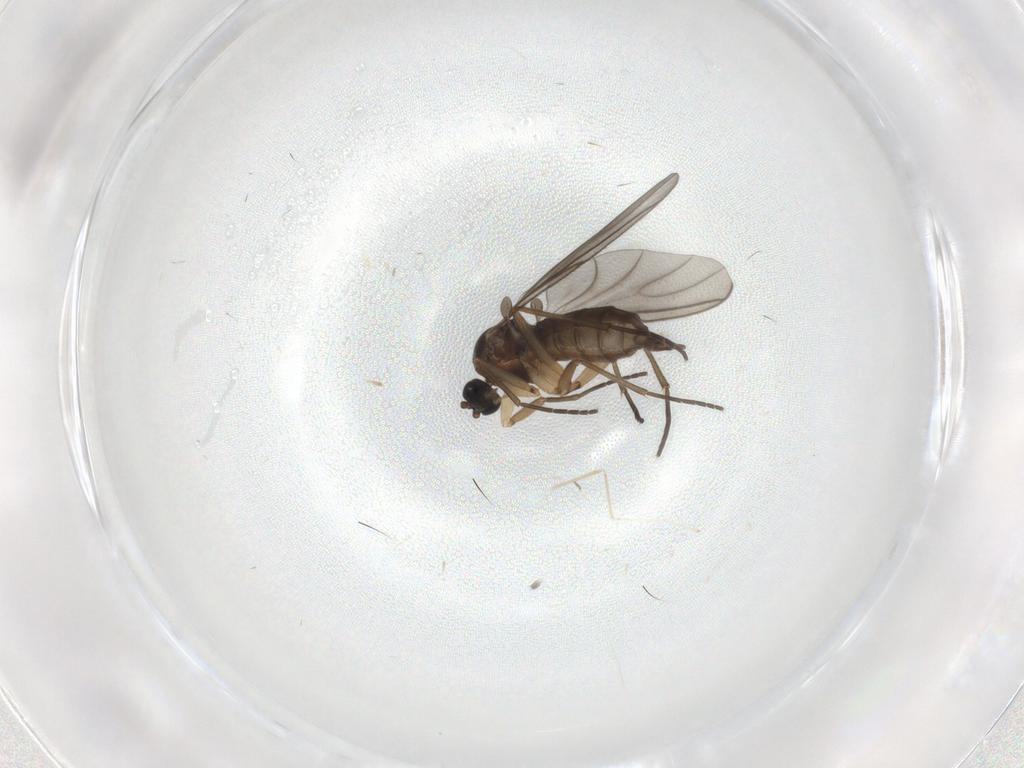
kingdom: Animalia
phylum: Arthropoda
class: Insecta
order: Diptera
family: Sciaridae
